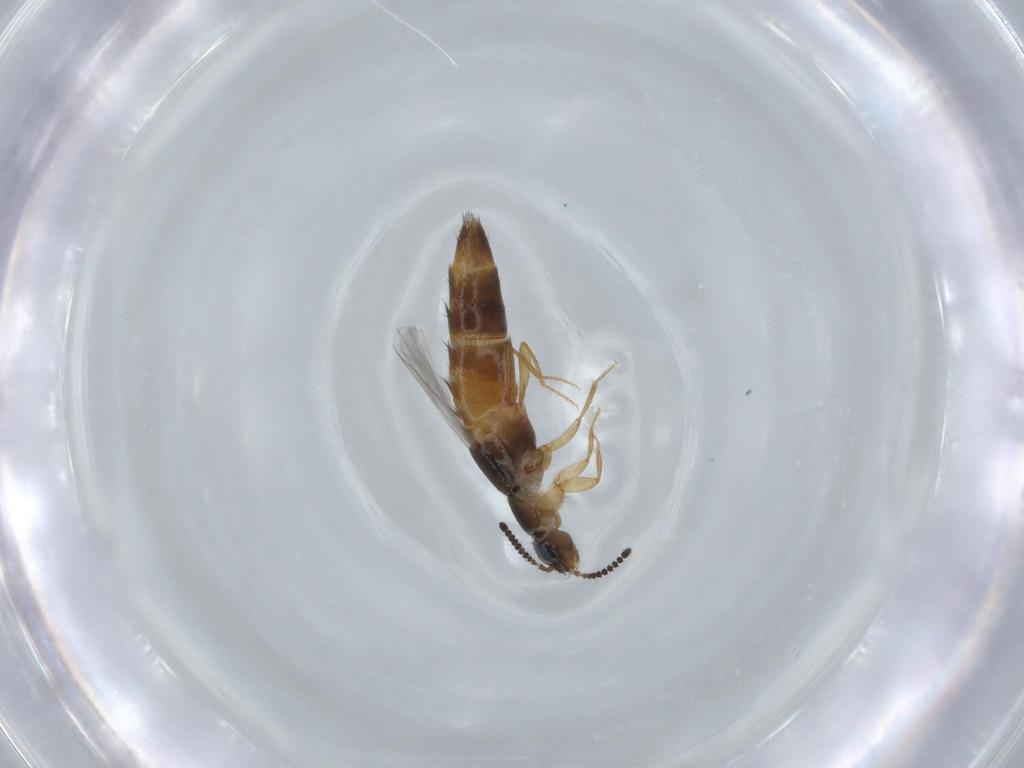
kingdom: Animalia
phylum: Arthropoda
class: Insecta
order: Coleoptera
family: Staphylinidae
